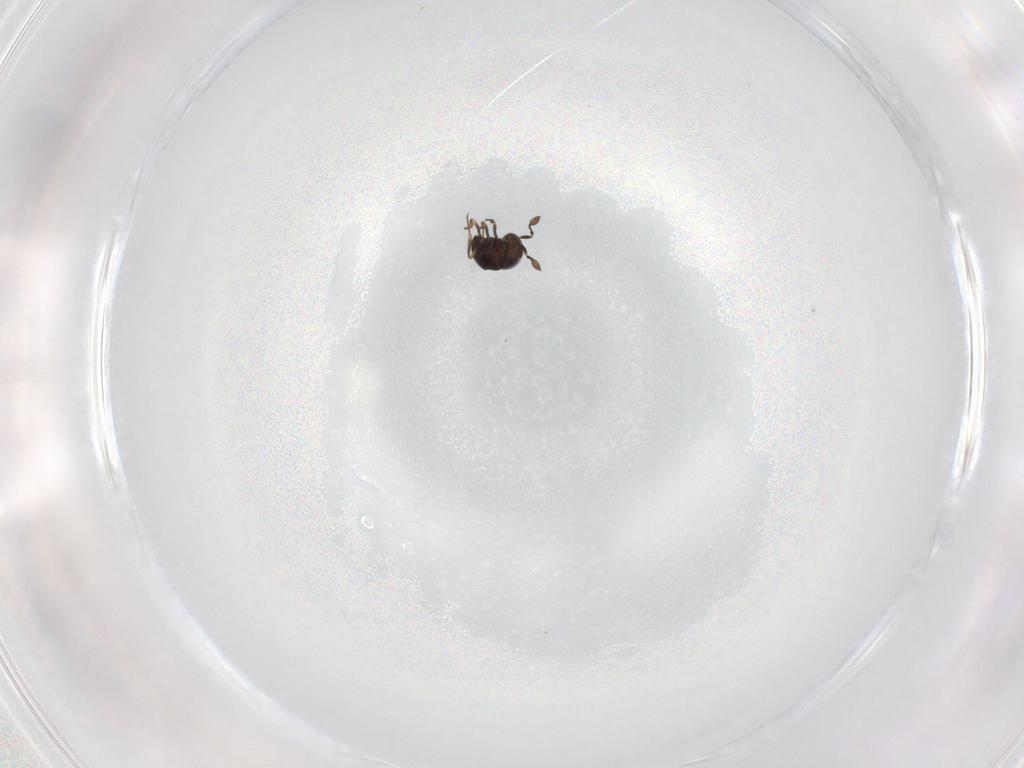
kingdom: Animalia
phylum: Arthropoda
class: Insecta
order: Hymenoptera
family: Scelionidae
